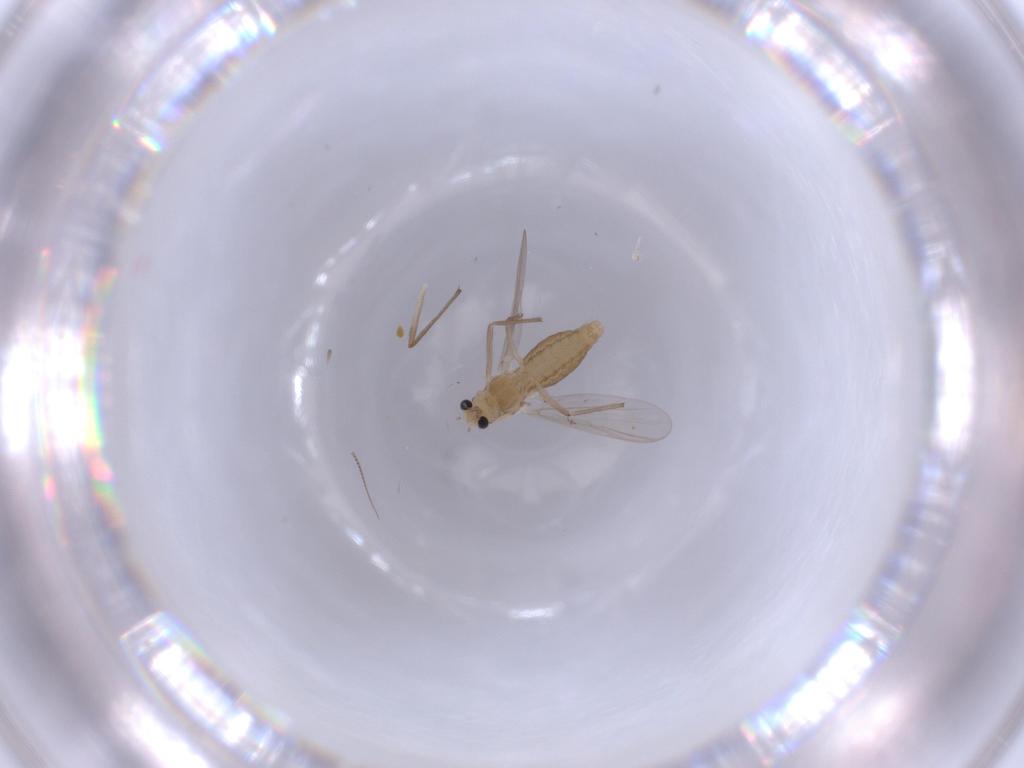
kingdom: Animalia
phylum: Arthropoda
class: Insecta
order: Diptera
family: Chironomidae
